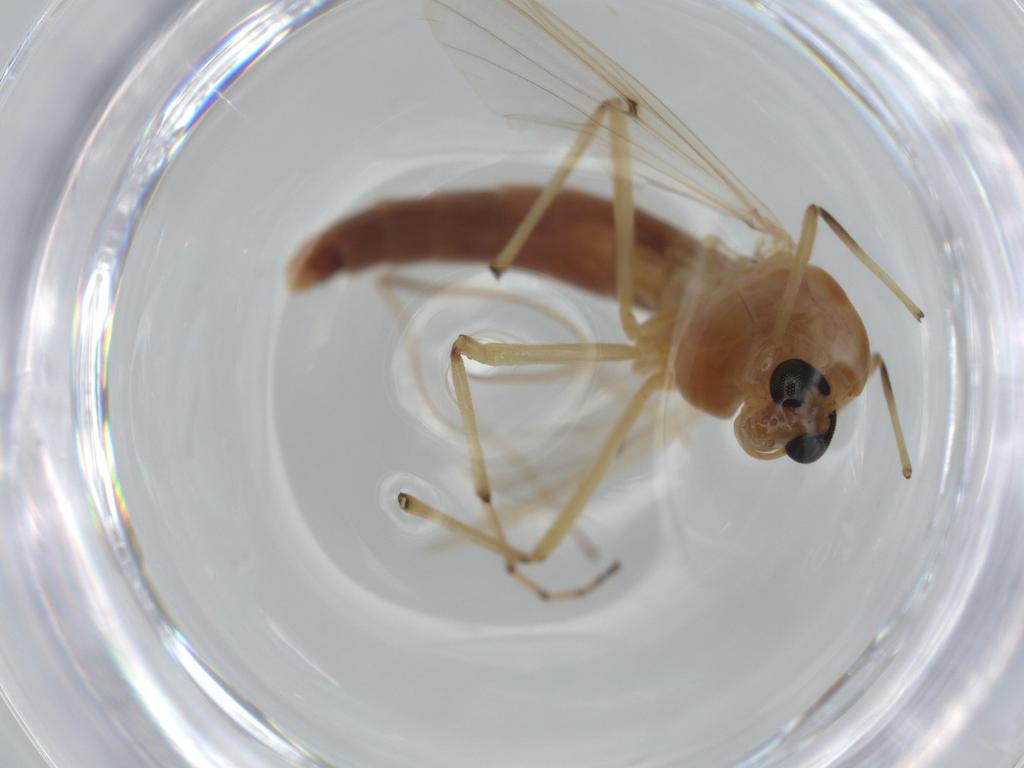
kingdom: Animalia
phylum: Arthropoda
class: Insecta
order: Diptera
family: Chironomidae
